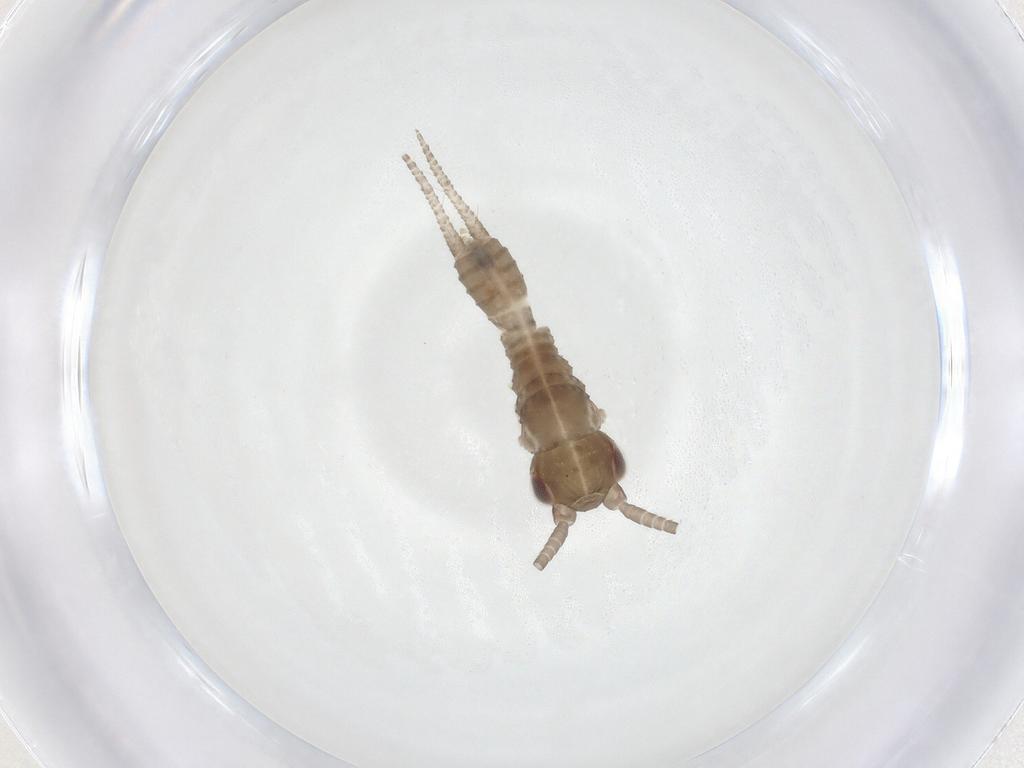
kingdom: Animalia
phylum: Arthropoda
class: Insecta
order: Orthoptera
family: Gryllidae
